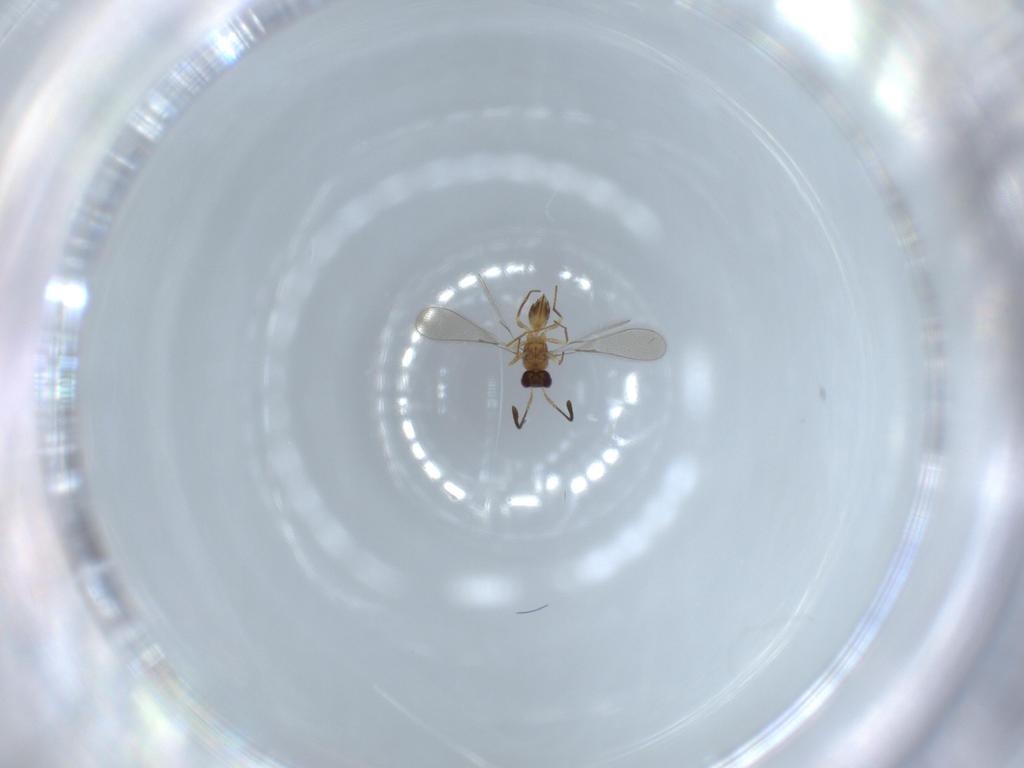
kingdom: Animalia
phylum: Arthropoda
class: Insecta
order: Hymenoptera
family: Mymaridae
